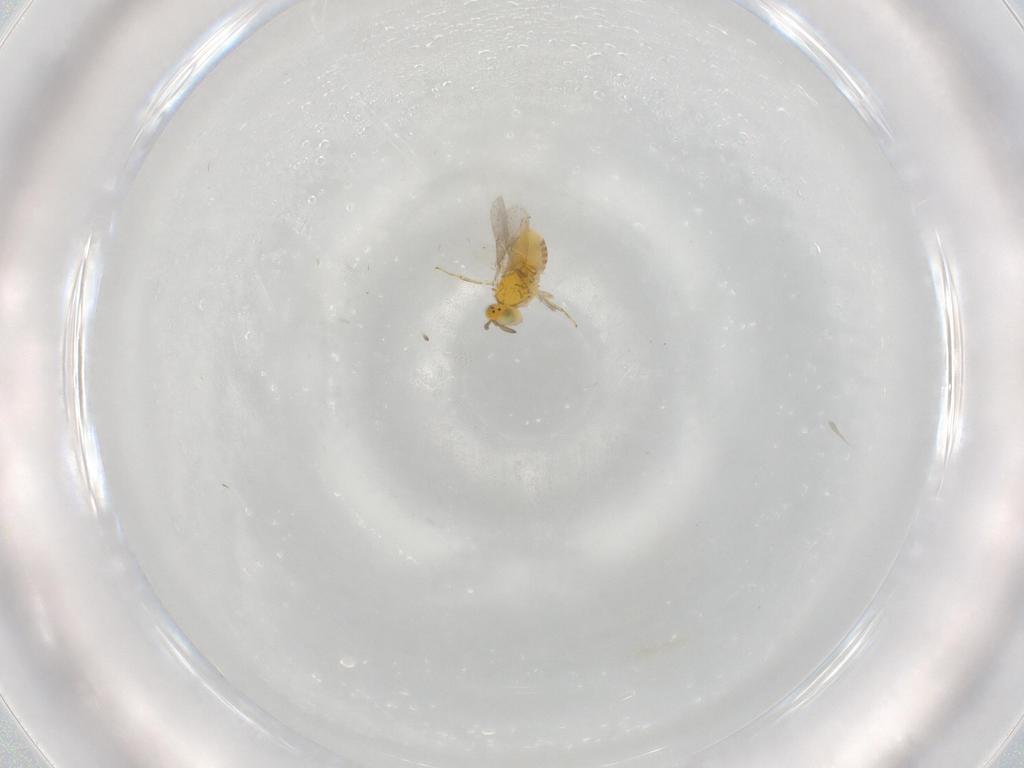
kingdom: Animalia
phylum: Arthropoda
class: Insecta
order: Hymenoptera
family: Aphelinidae
